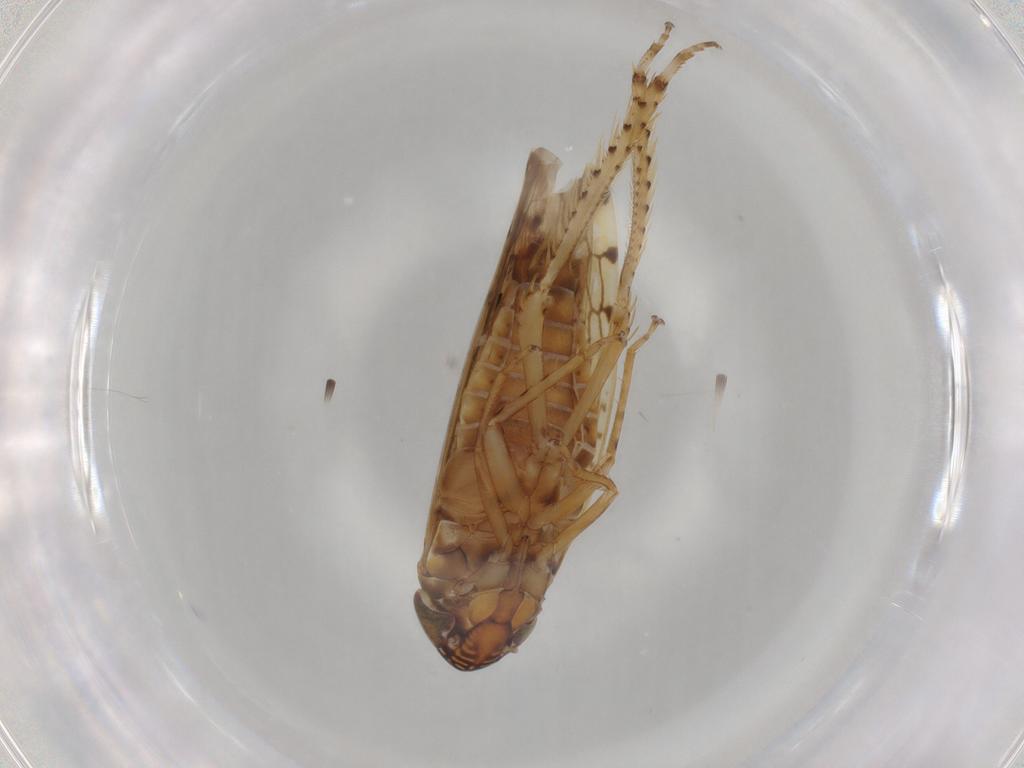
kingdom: Animalia
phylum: Arthropoda
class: Insecta
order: Hemiptera
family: Cicadellidae
